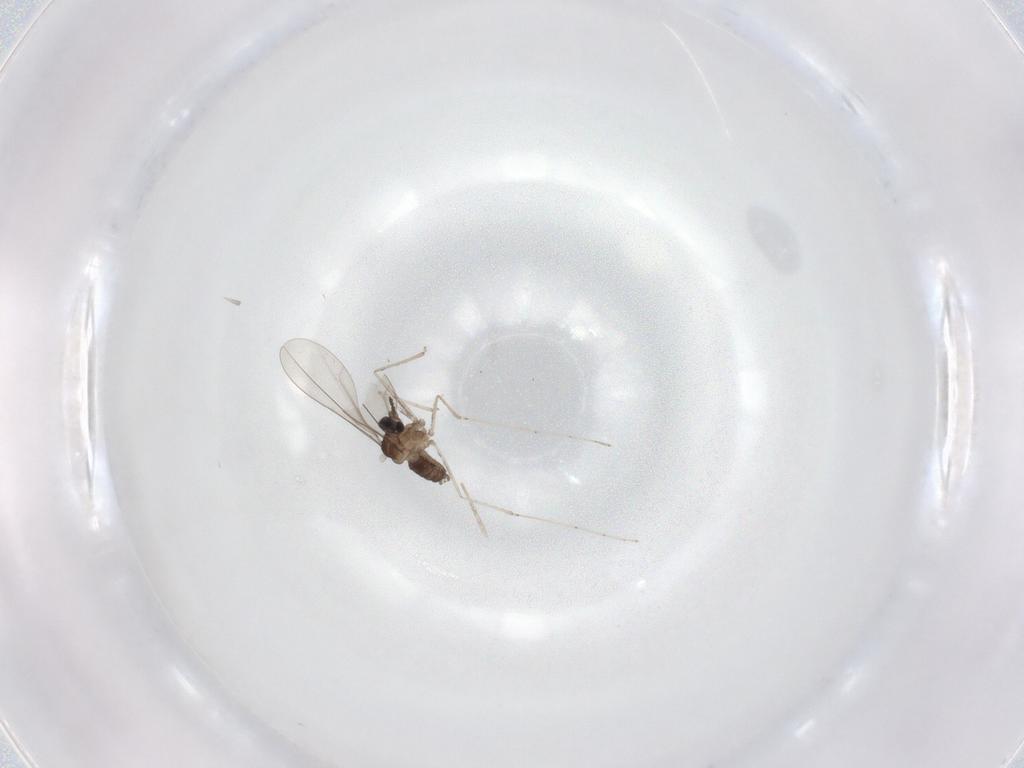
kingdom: Animalia
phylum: Arthropoda
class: Insecta
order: Diptera
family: Cecidomyiidae
